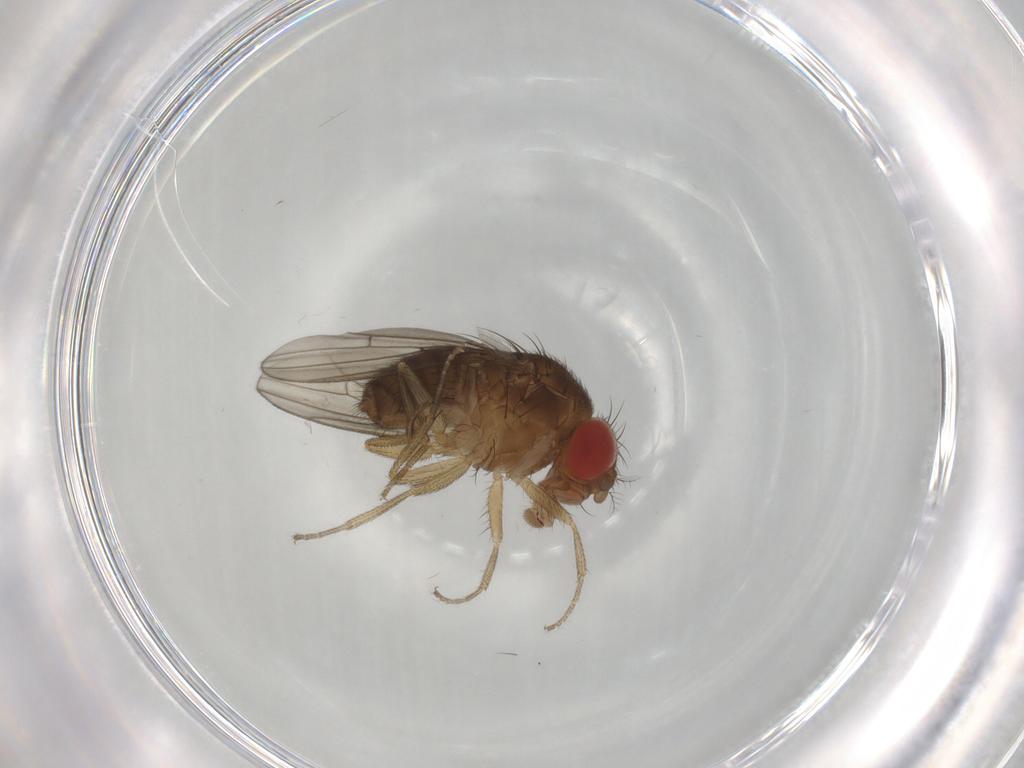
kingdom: Animalia
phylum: Arthropoda
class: Insecta
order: Diptera
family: Drosophilidae
